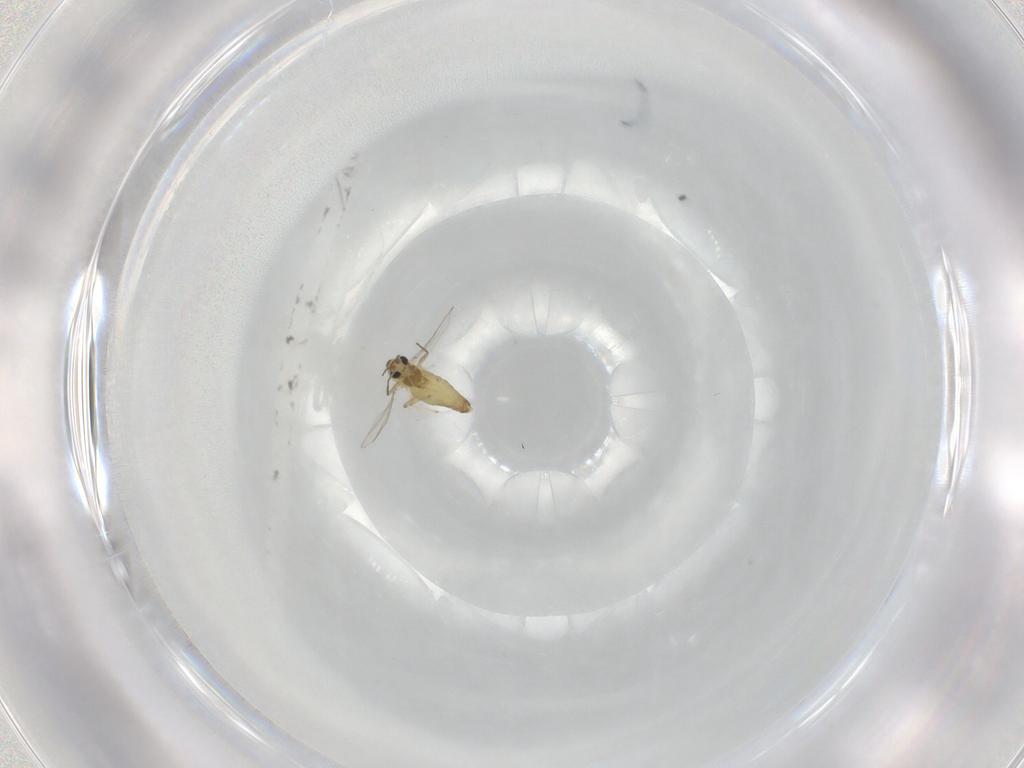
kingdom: Animalia
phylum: Arthropoda
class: Insecta
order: Diptera
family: Chironomidae
